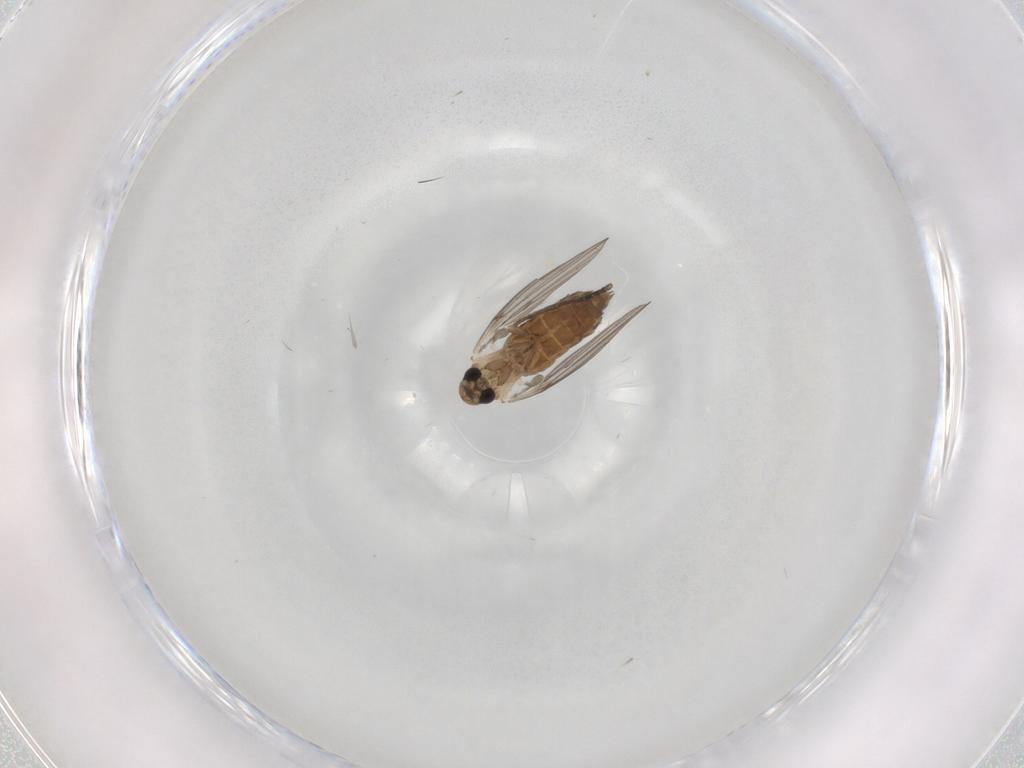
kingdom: Animalia
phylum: Arthropoda
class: Insecta
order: Diptera
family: Psychodidae
